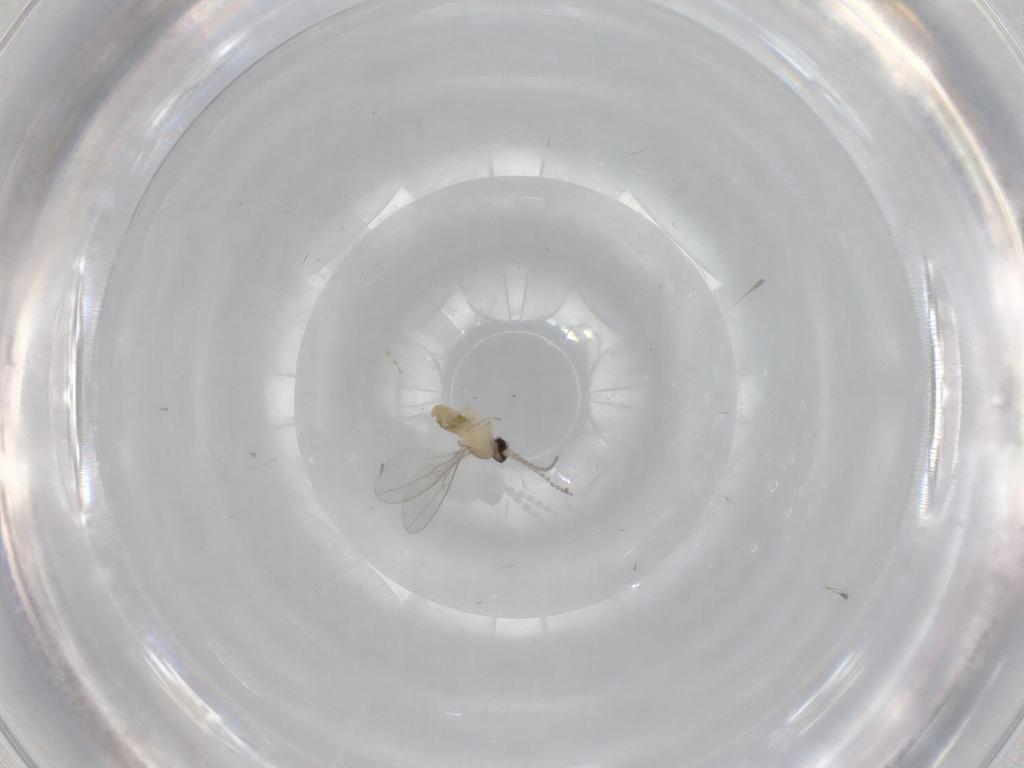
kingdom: Animalia
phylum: Arthropoda
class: Insecta
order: Diptera
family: Cecidomyiidae
